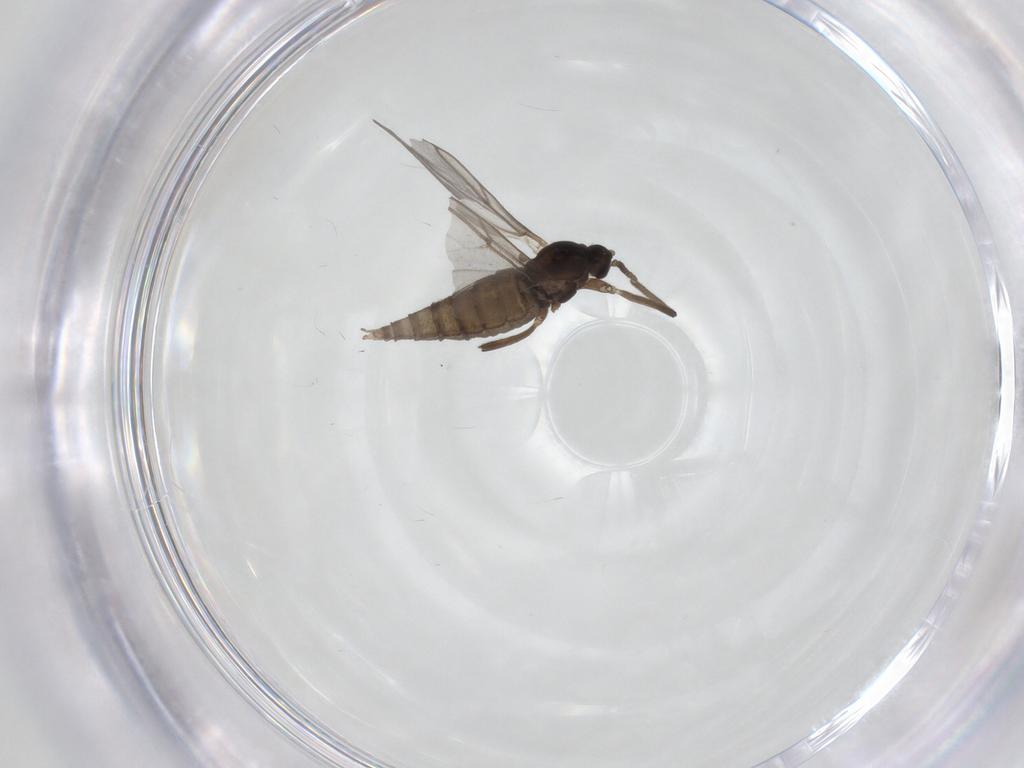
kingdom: Animalia
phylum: Arthropoda
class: Insecta
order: Diptera
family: Cecidomyiidae
